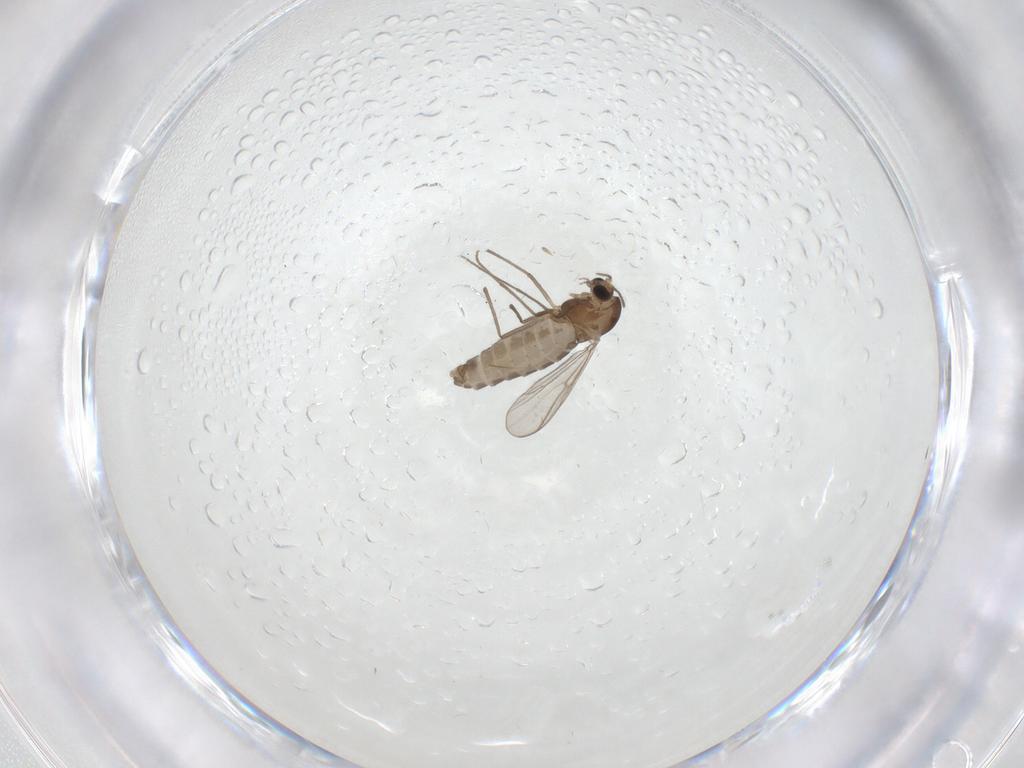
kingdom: Animalia
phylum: Arthropoda
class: Insecta
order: Diptera
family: Chironomidae
